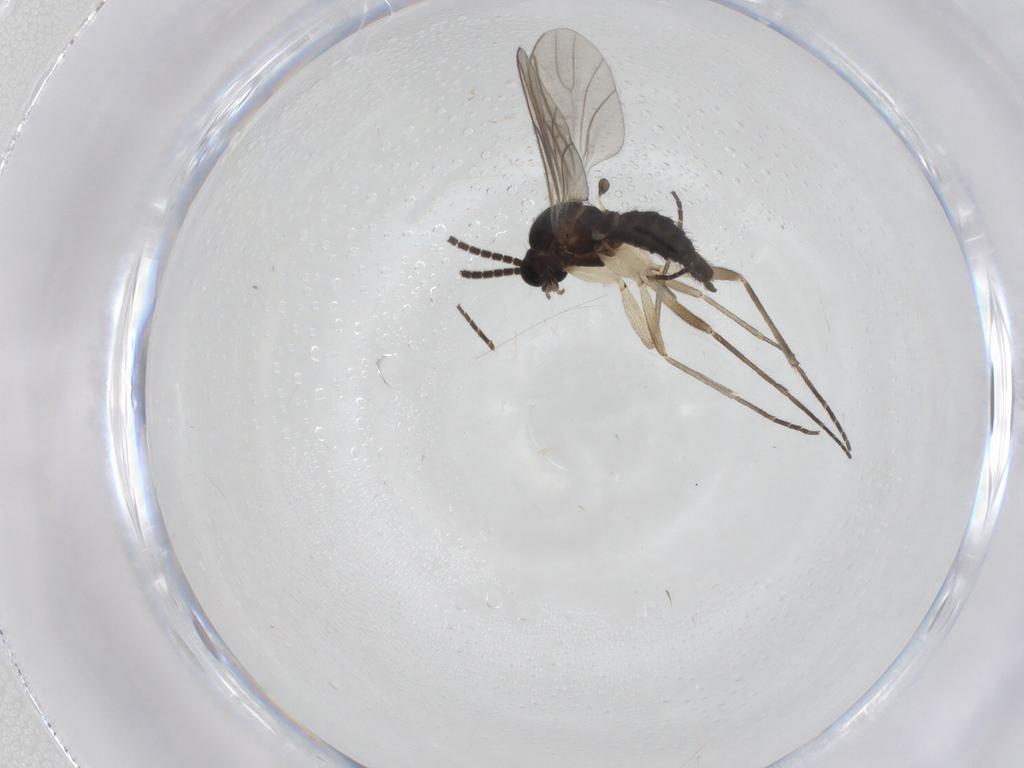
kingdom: Animalia
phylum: Arthropoda
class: Insecta
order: Diptera
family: Sciaridae
